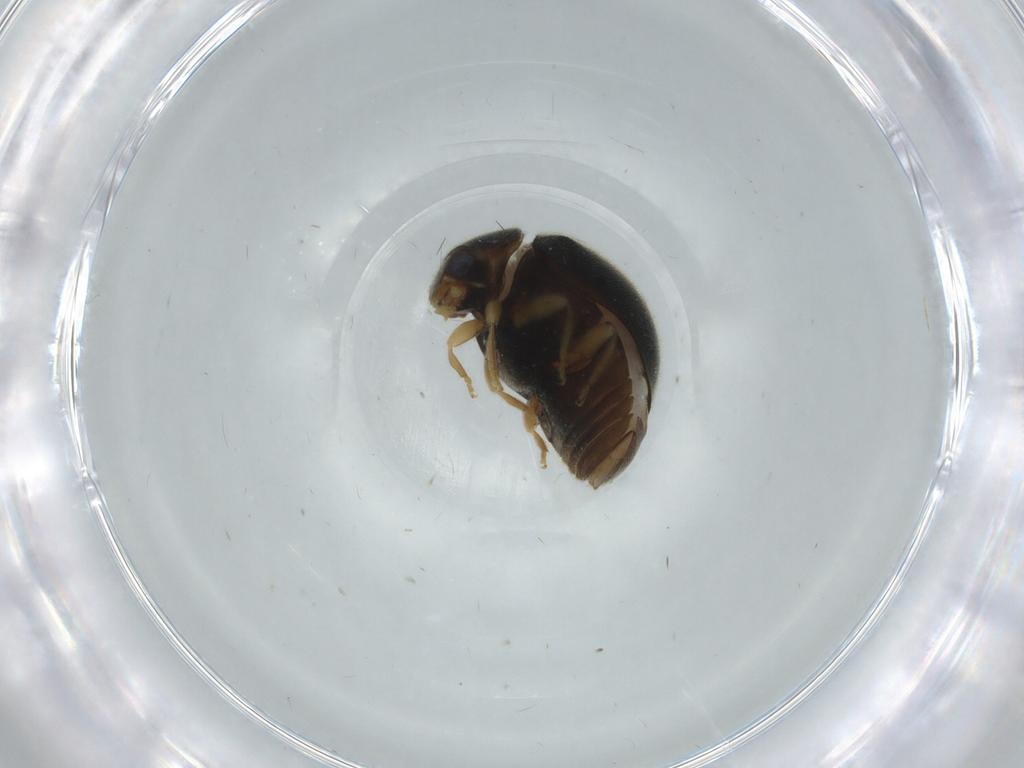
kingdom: Animalia
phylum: Arthropoda
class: Insecta
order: Coleoptera
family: Coccinellidae
